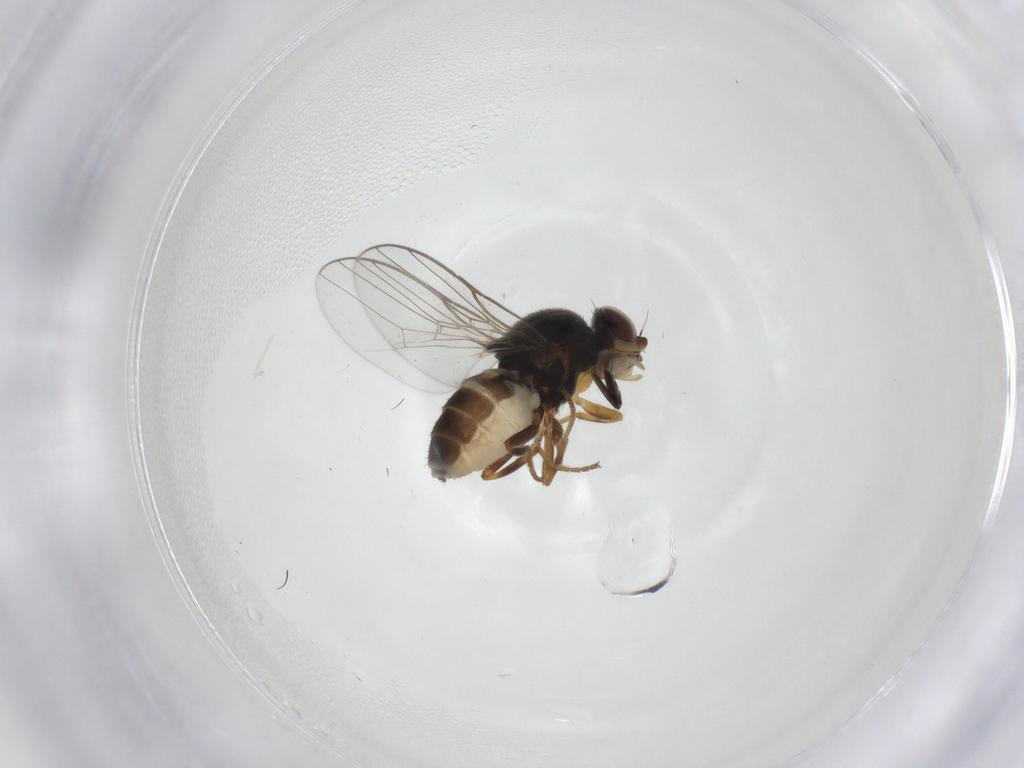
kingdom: Animalia
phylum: Arthropoda
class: Insecta
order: Diptera
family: Chloropidae
